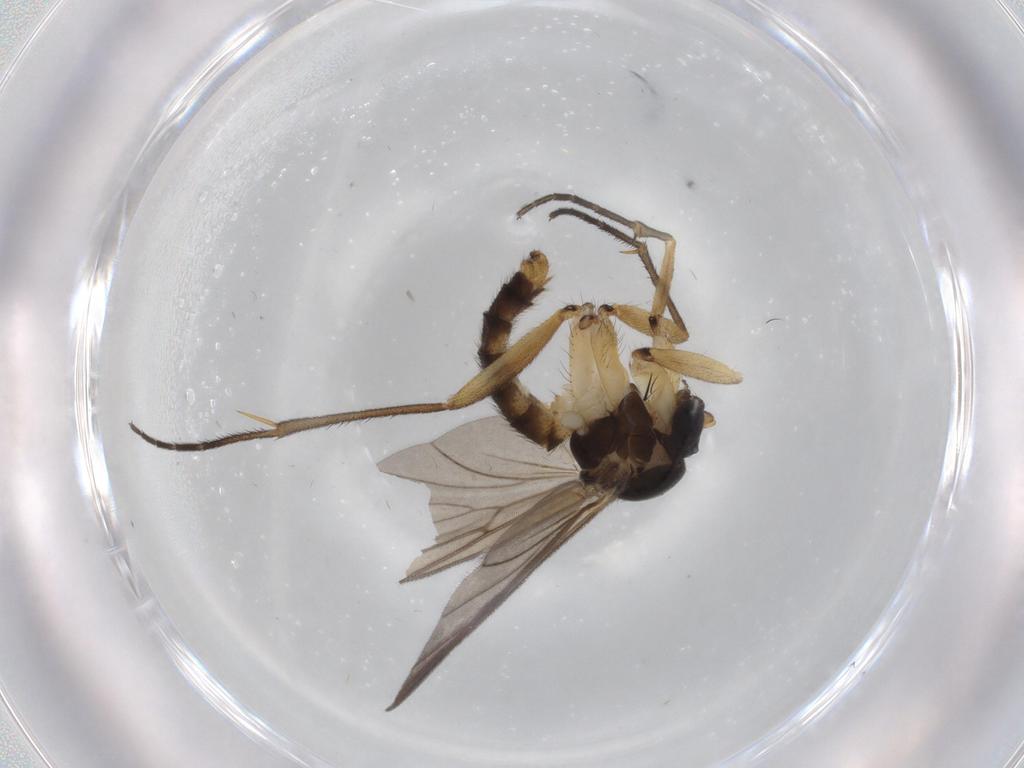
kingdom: Animalia
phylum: Arthropoda
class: Insecta
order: Diptera
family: Chironomidae
